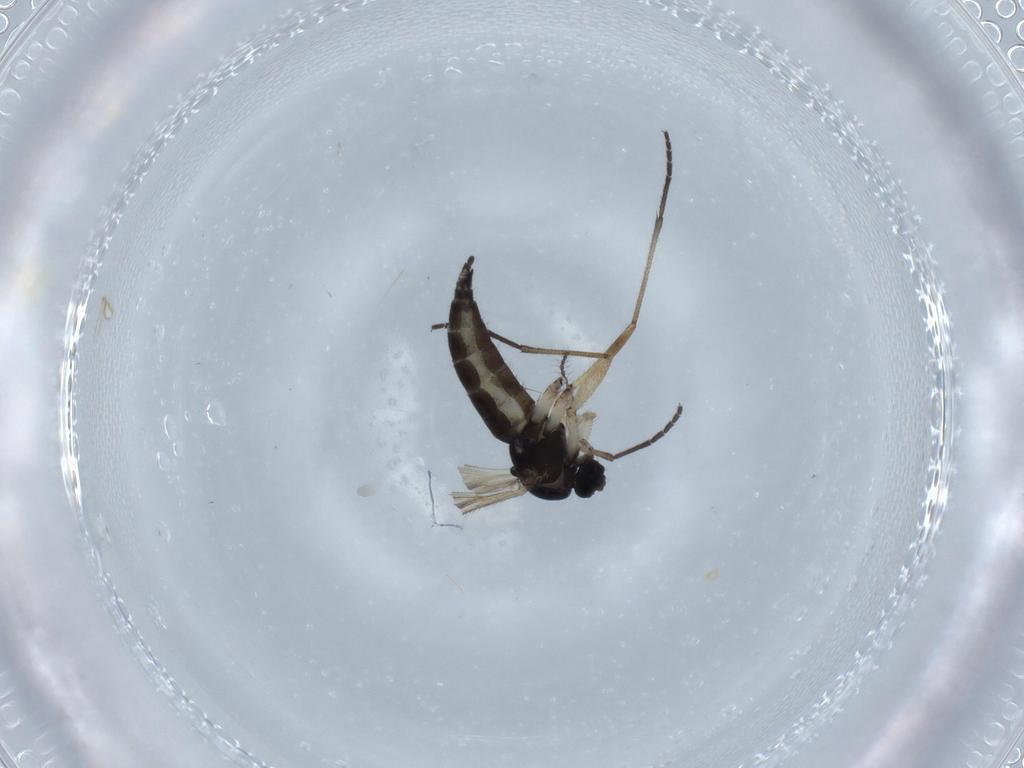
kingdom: Animalia
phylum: Arthropoda
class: Insecta
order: Diptera
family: Sciaridae
